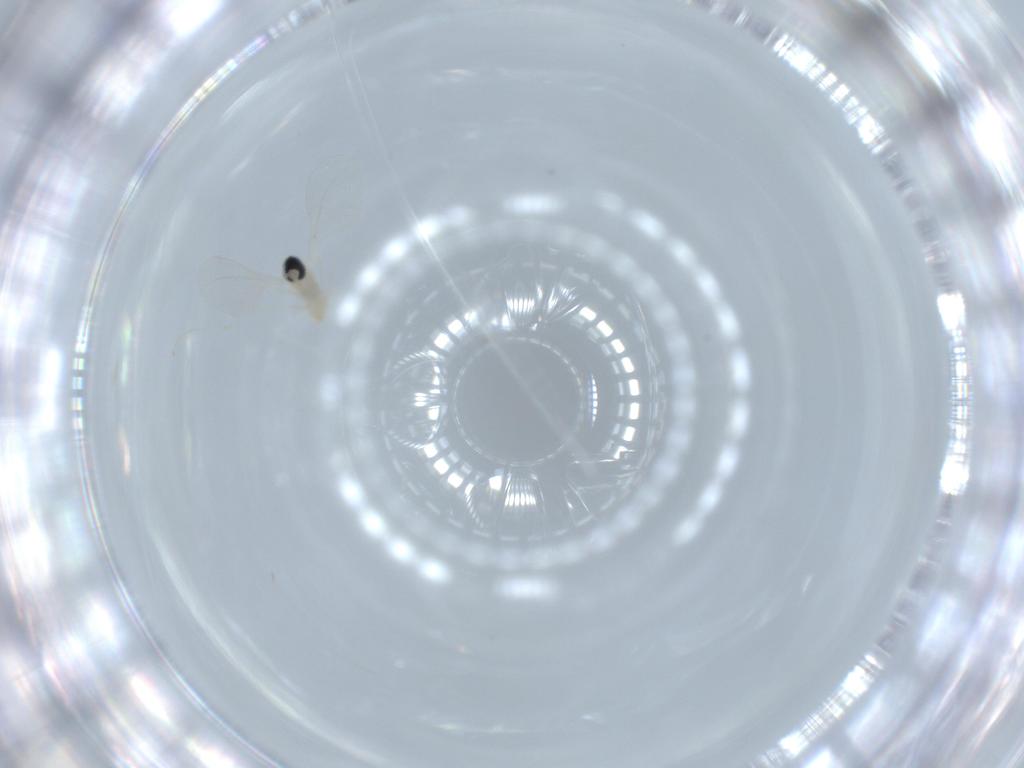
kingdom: Animalia
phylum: Arthropoda
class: Insecta
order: Diptera
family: Cecidomyiidae
